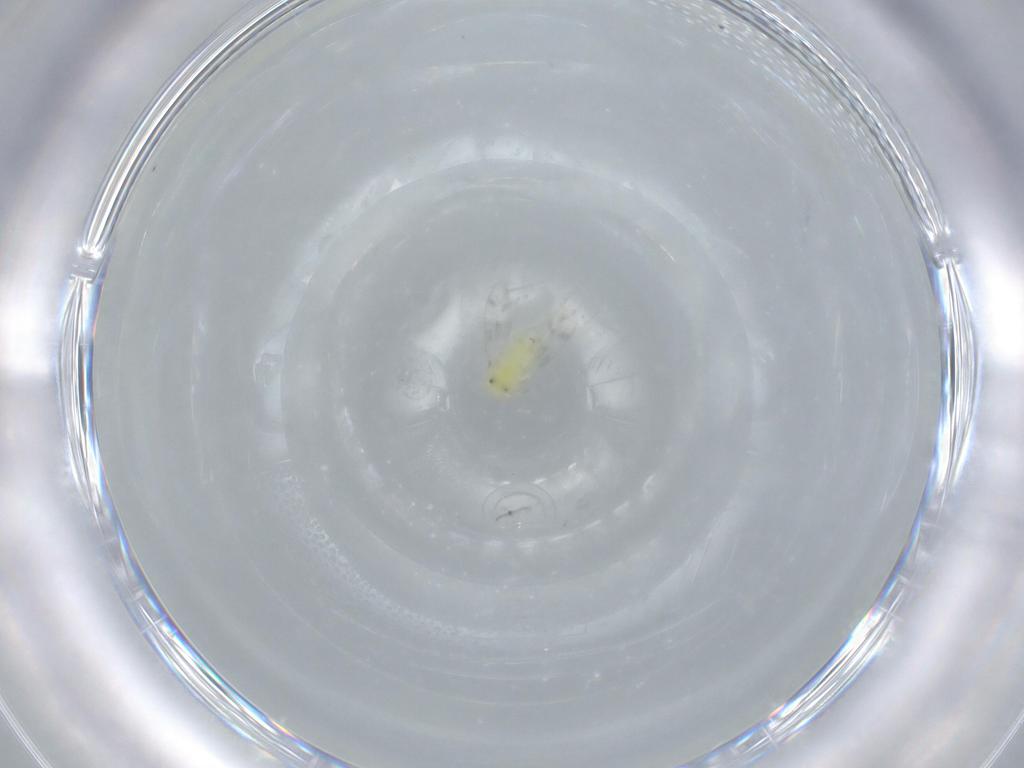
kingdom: Animalia
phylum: Arthropoda
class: Insecta
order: Hemiptera
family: Aleyrodidae
